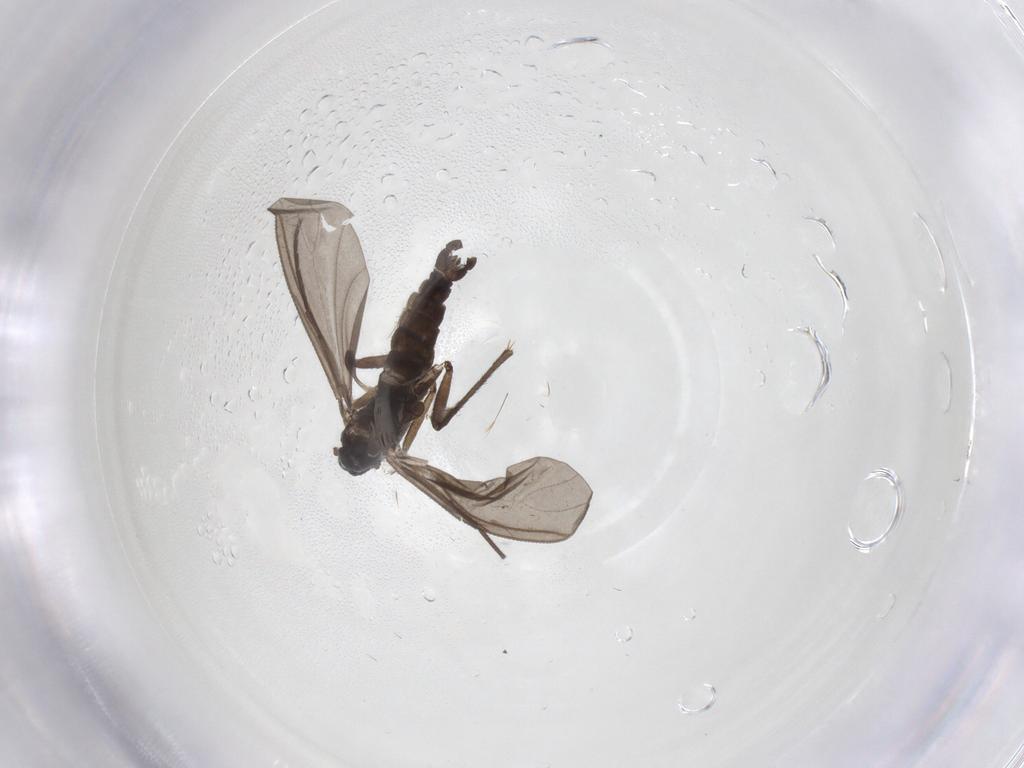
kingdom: Animalia
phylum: Arthropoda
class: Insecta
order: Diptera
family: Sciaridae
